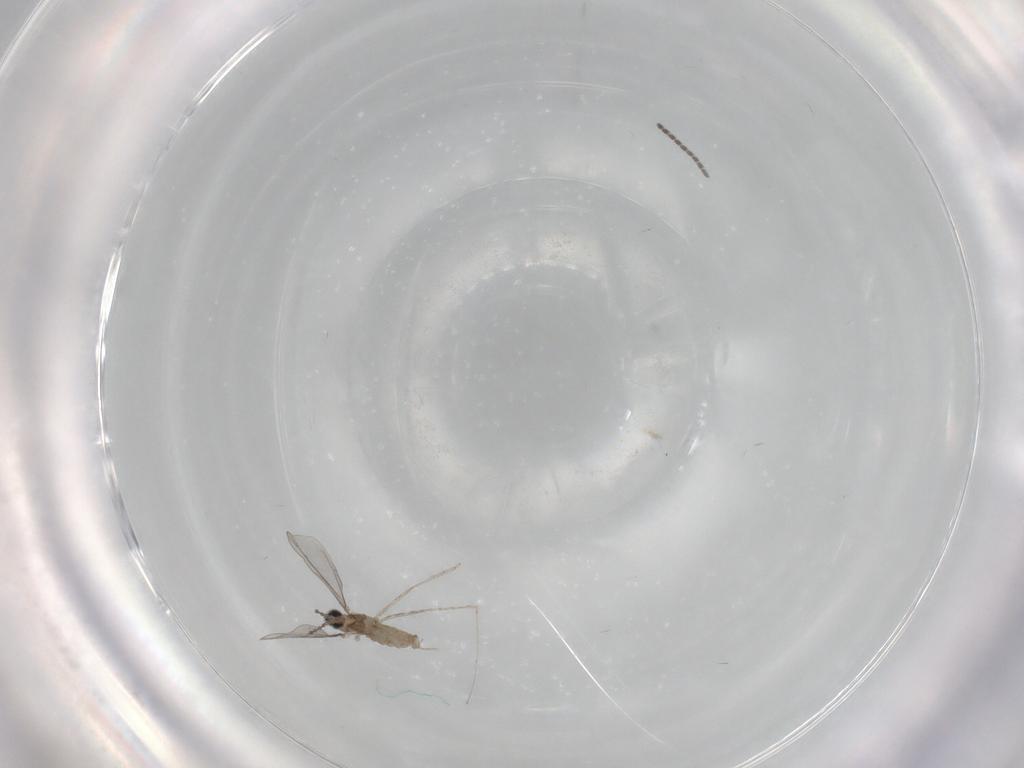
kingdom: Animalia
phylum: Arthropoda
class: Insecta
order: Diptera
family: Cecidomyiidae
